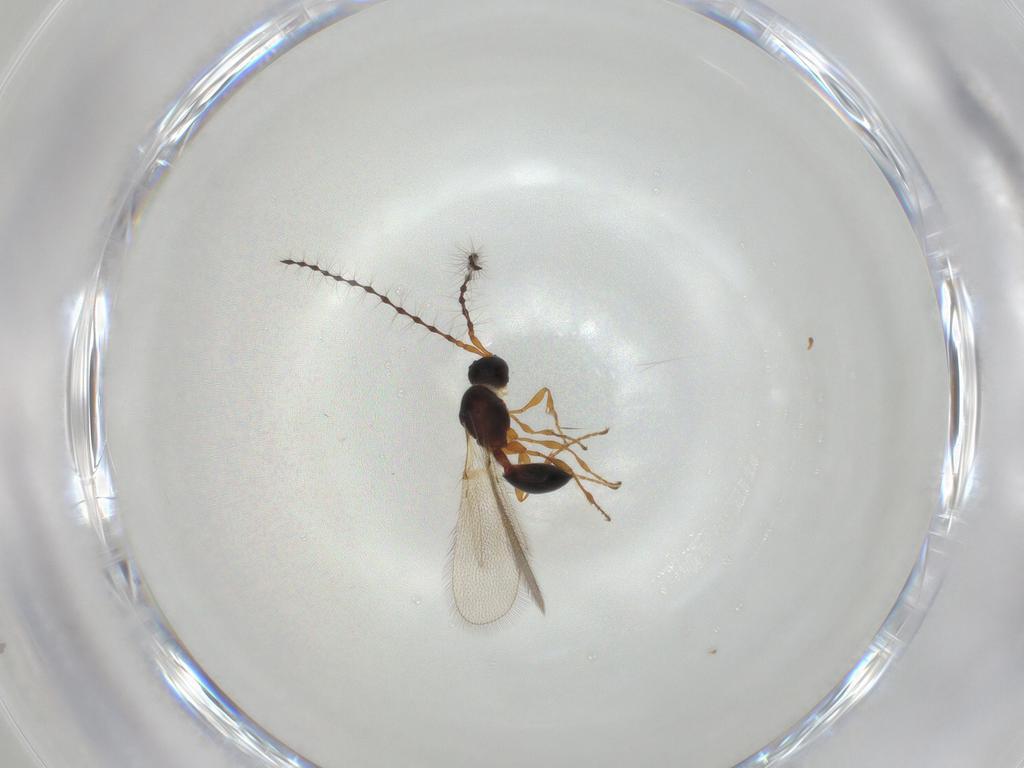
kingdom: Animalia
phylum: Arthropoda
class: Insecta
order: Hymenoptera
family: Diapriidae
